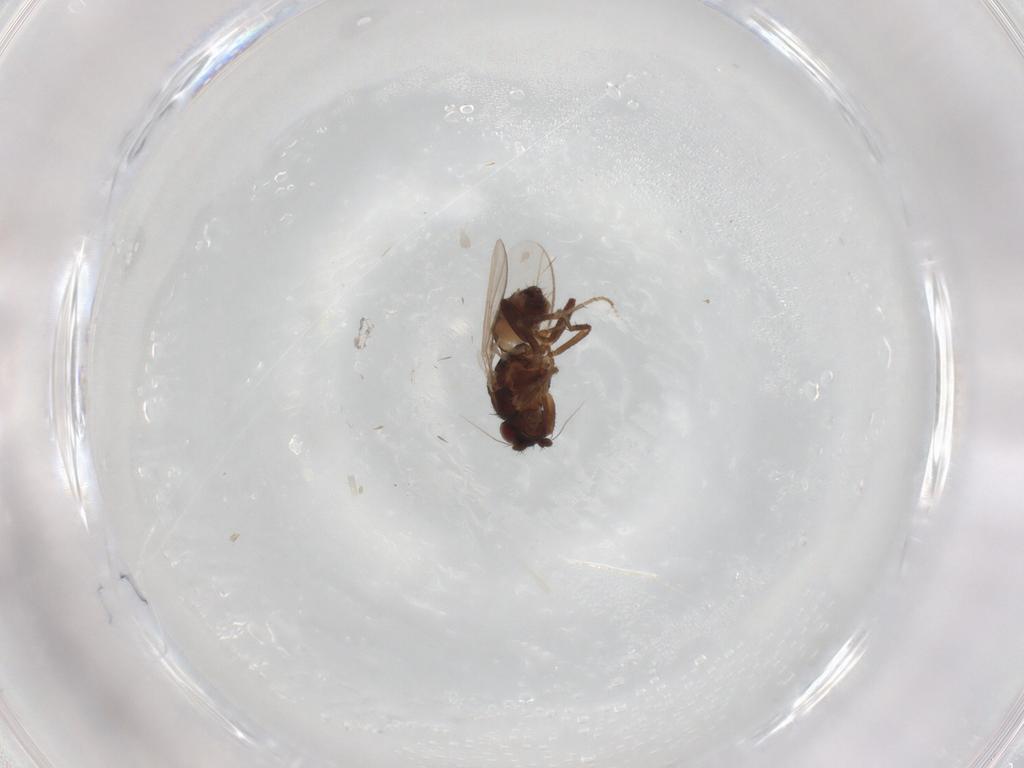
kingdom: Animalia
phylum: Arthropoda
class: Insecta
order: Diptera
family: Sphaeroceridae
